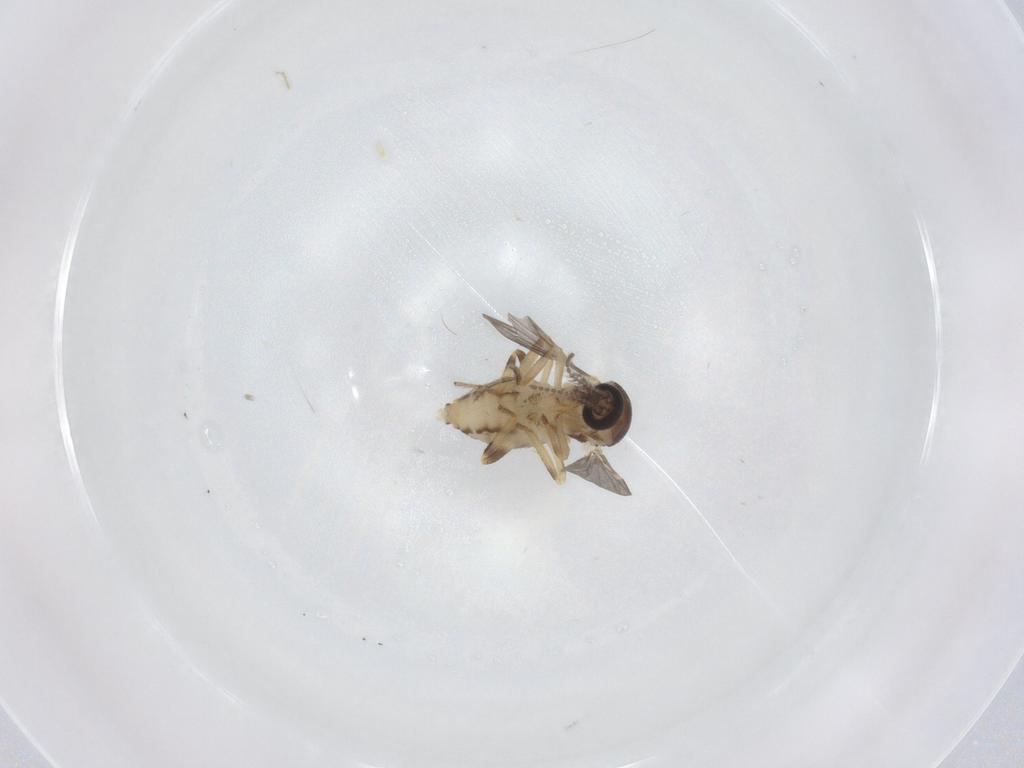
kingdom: Animalia
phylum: Arthropoda
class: Insecta
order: Diptera
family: Ceratopogonidae
